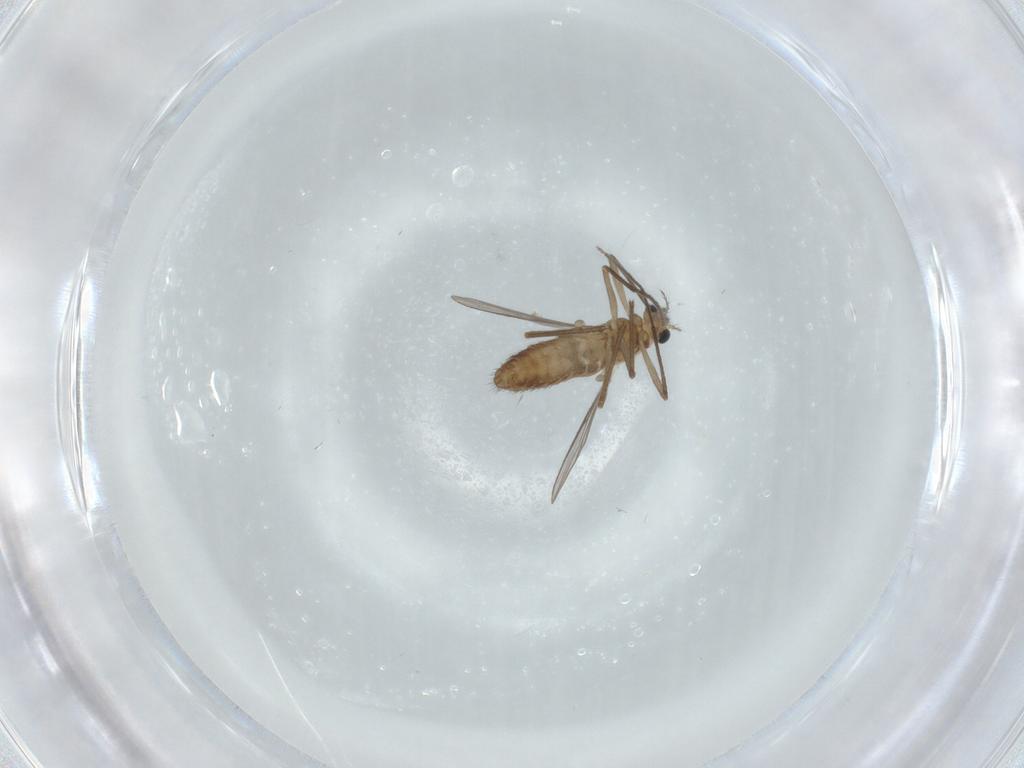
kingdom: Animalia
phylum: Arthropoda
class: Insecta
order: Diptera
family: Chironomidae
